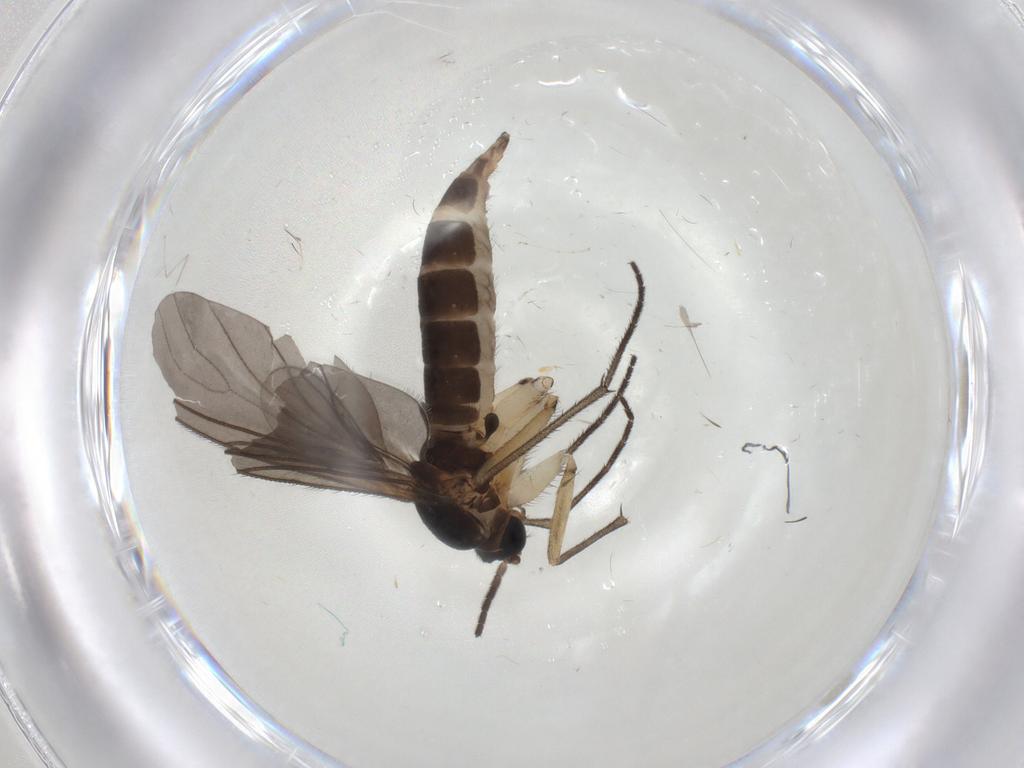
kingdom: Animalia
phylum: Arthropoda
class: Insecta
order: Diptera
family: Sciaridae
